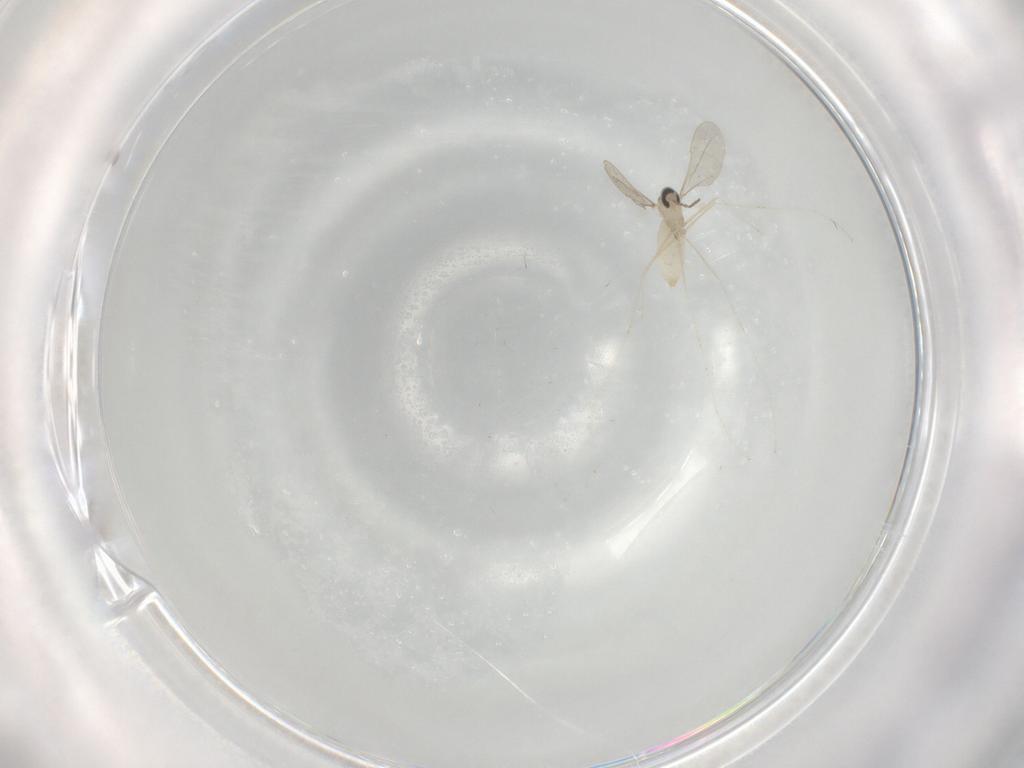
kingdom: Animalia
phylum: Arthropoda
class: Insecta
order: Diptera
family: Cecidomyiidae
